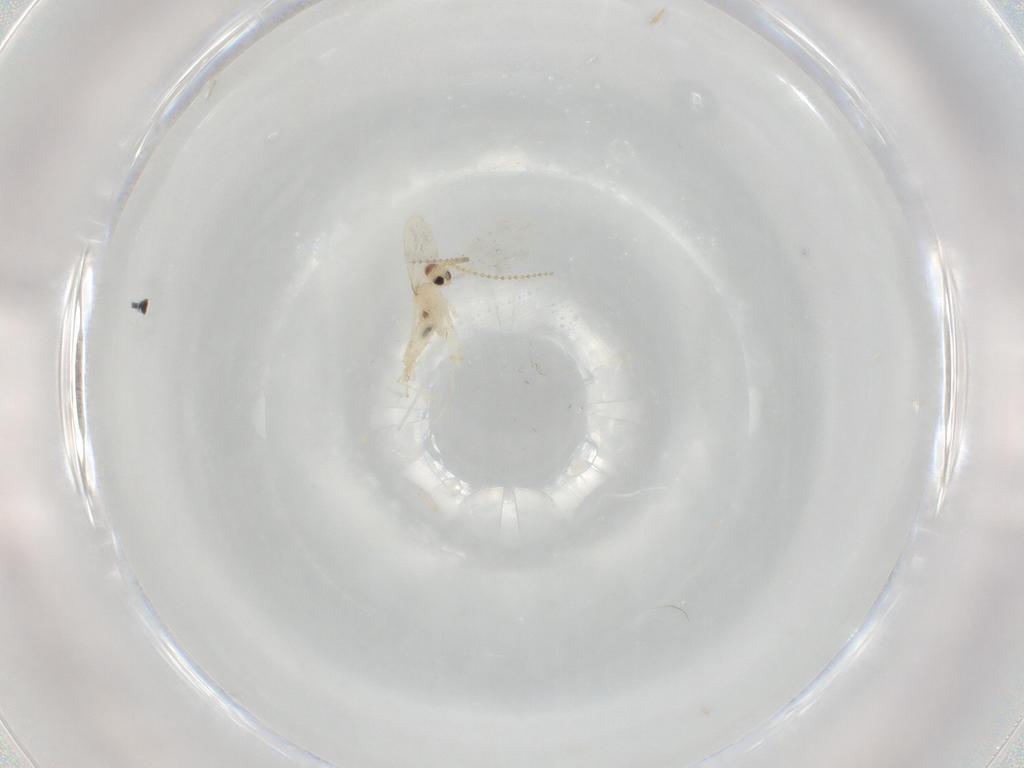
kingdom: Animalia
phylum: Arthropoda
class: Insecta
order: Diptera
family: Cecidomyiidae
